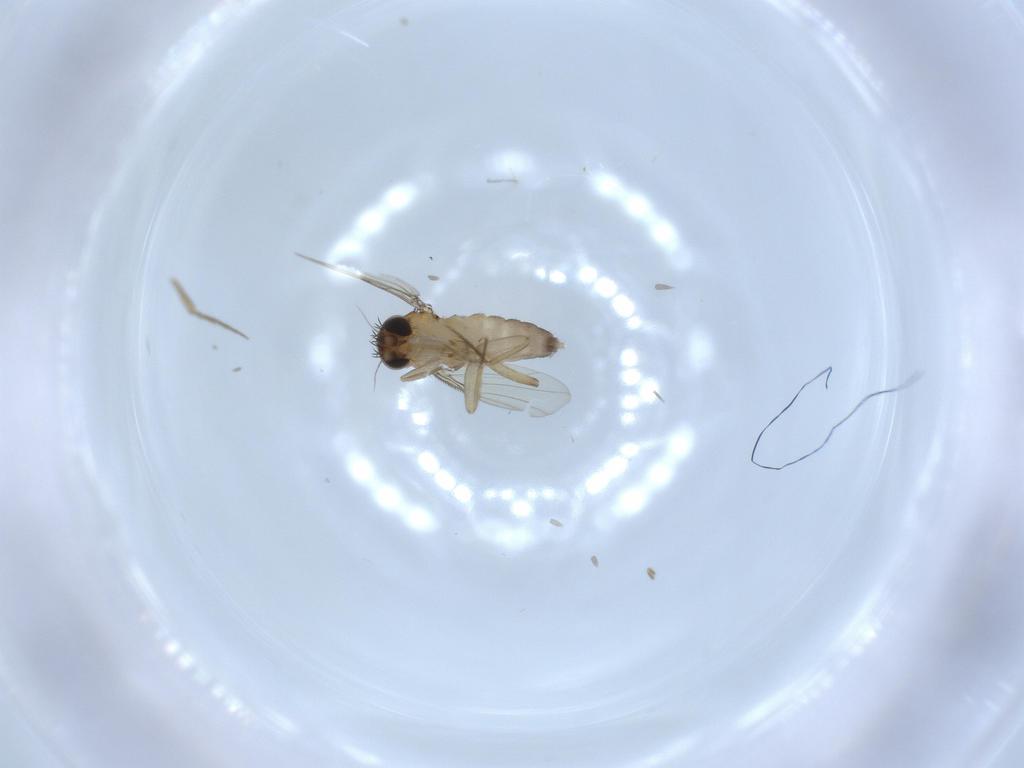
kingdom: Animalia
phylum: Arthropoda
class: Insecta
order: Diptera
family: Phoridae
